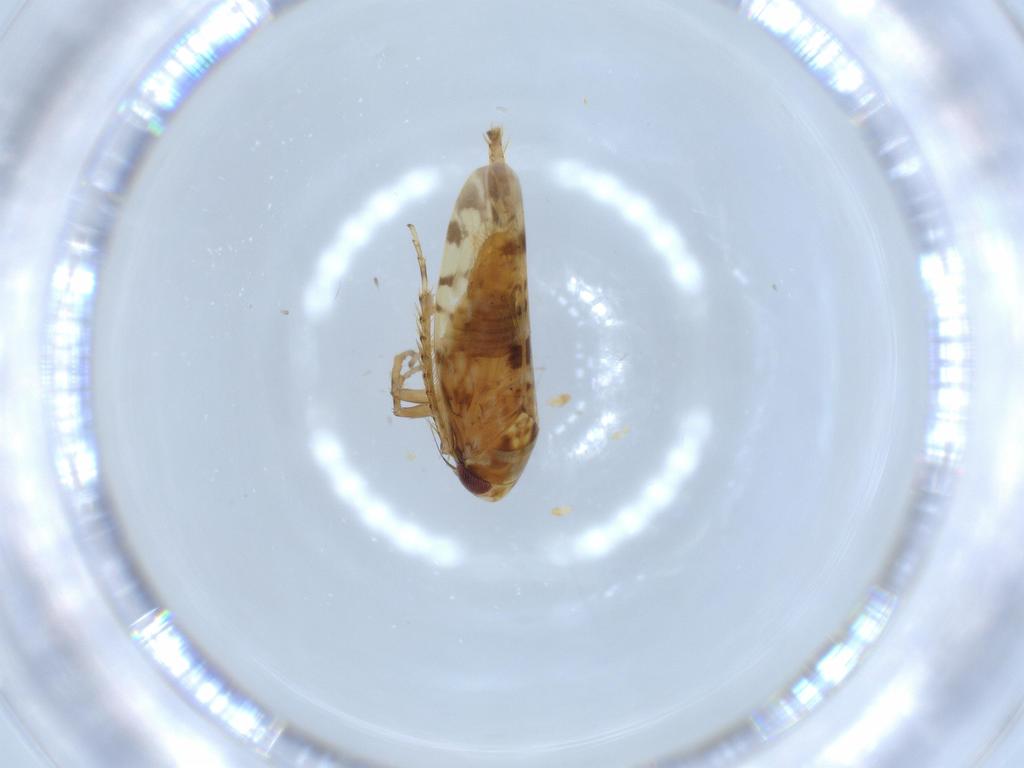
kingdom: Animalia
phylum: Arthropoda
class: Insecta
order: Hemiptera
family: Cicadellidae
